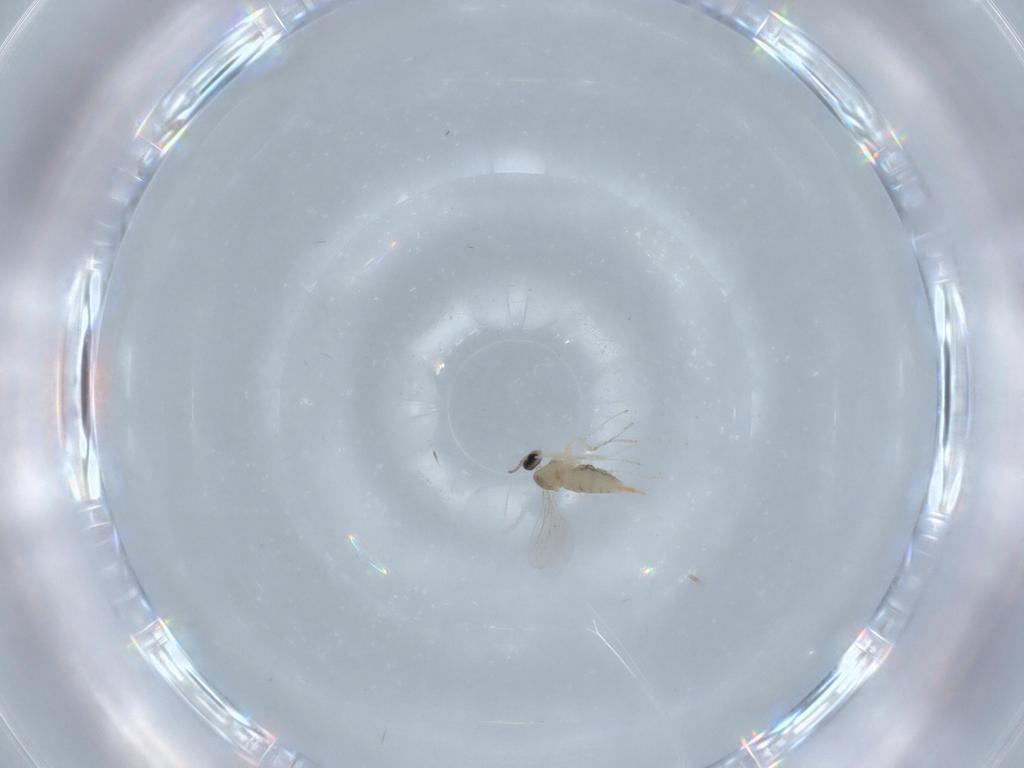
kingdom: Animalia
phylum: Arthropoda
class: Insecta
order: Diptera
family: Cecidomyiidae
